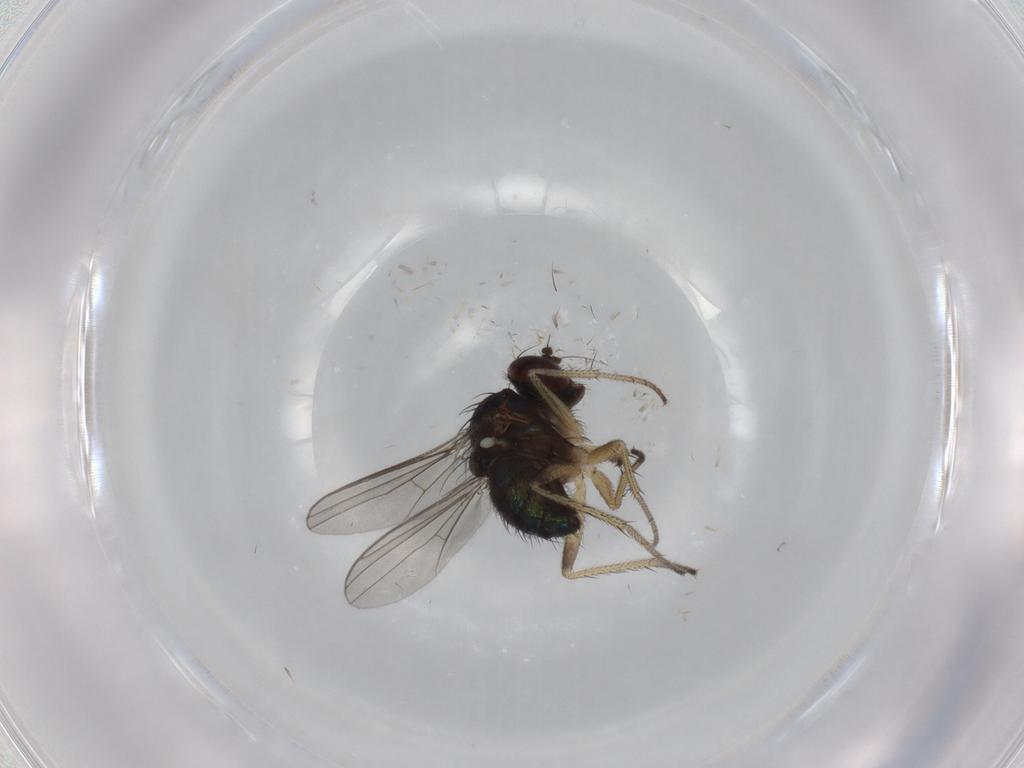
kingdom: Animalia
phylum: Arthropoda
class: Insecta
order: Diptera
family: Dolichopodidae
